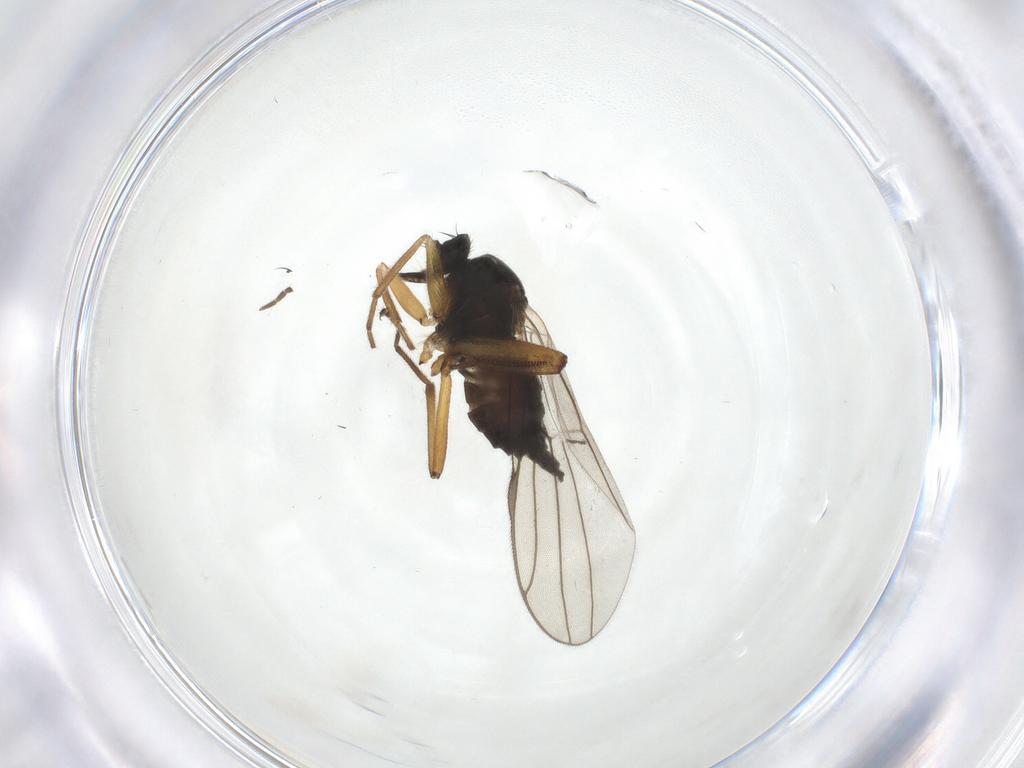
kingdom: Animalia
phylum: Arthropoda
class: Insecta
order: Diptera
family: Hybotidae
